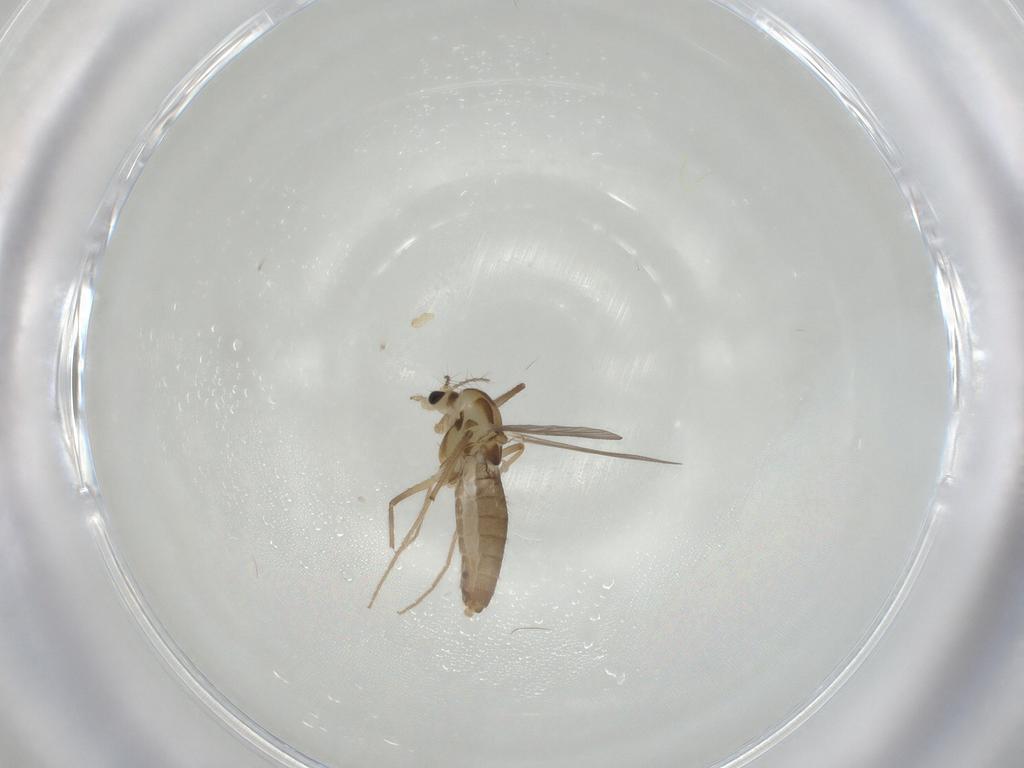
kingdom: Animalia
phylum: Arthropoda
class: Insecta
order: Diptera
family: Chironomidae
